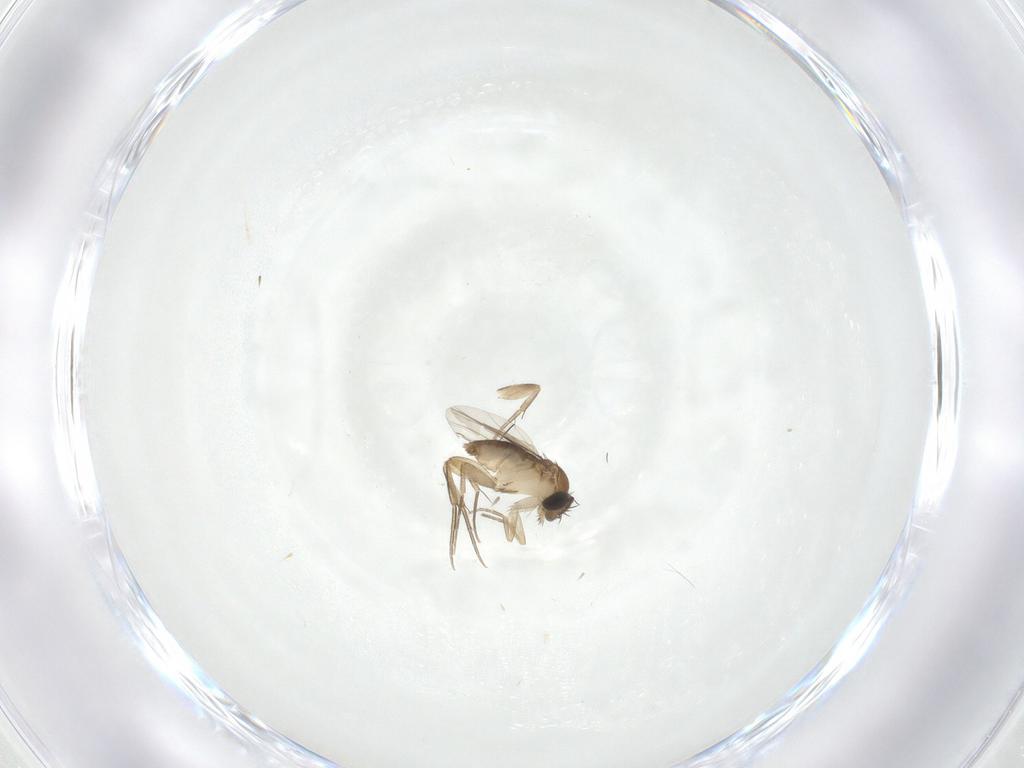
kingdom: Animalia
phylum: Arthropoda
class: Insecta
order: Diptera
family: Phoridae
